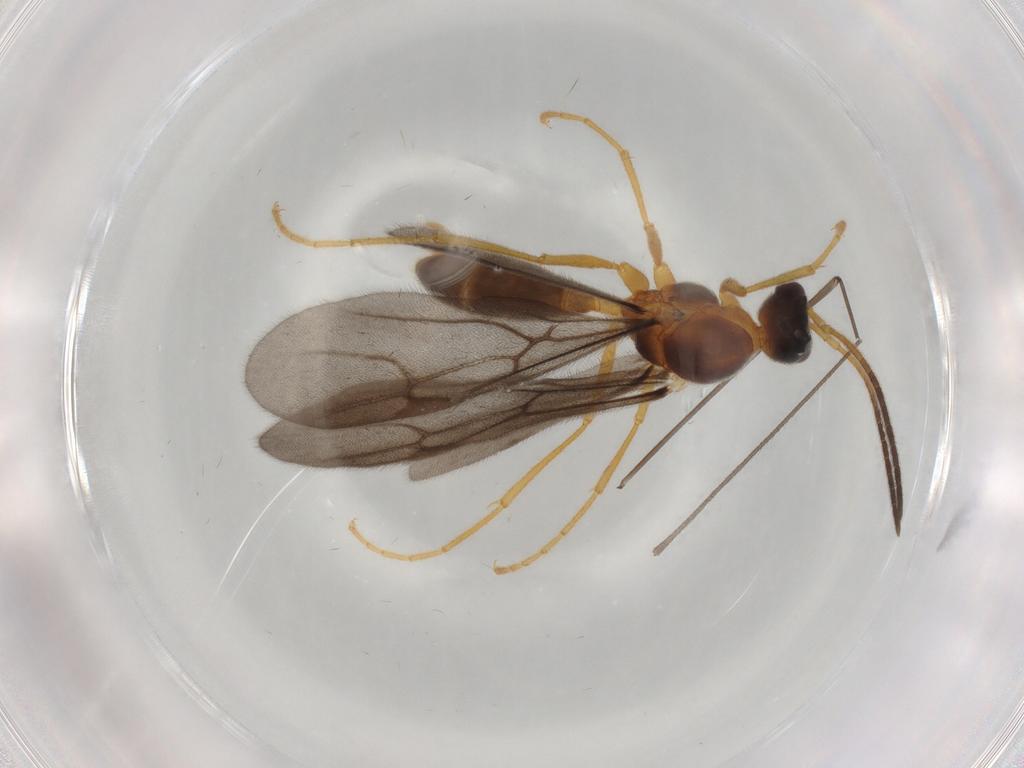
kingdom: Animalia
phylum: Arthropoda
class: Insecta
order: Hymenoptera
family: Formicidae
